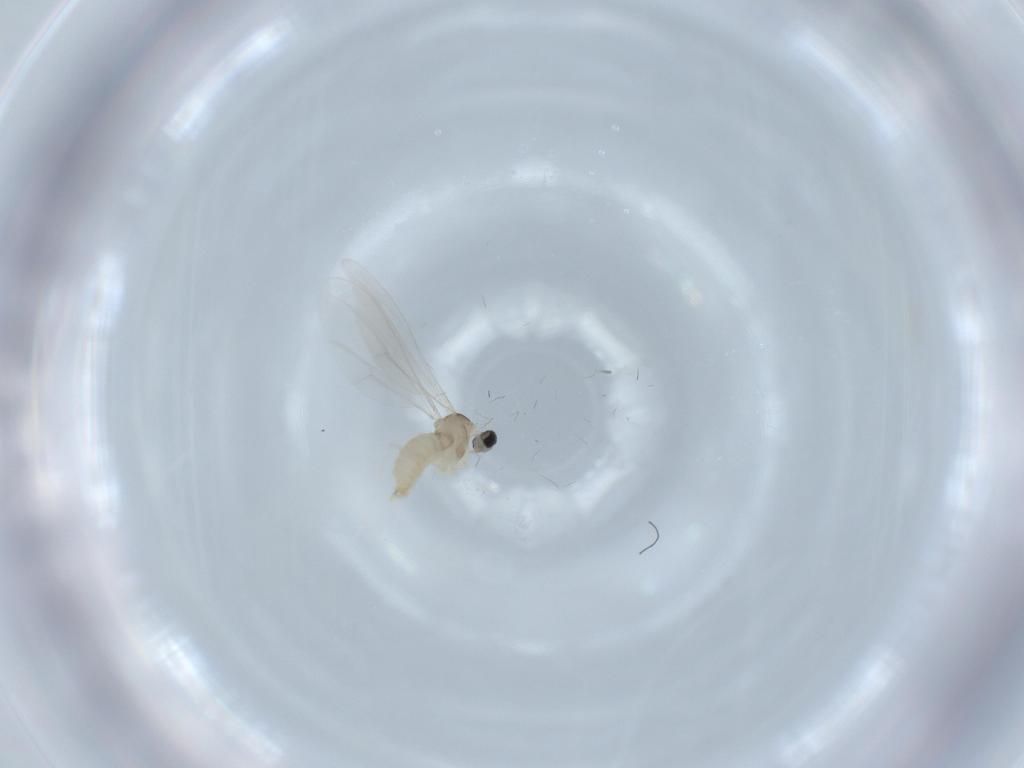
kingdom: Animalia
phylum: Arthropoda
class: Insecta
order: Diptera
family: Cecidomyiidae
